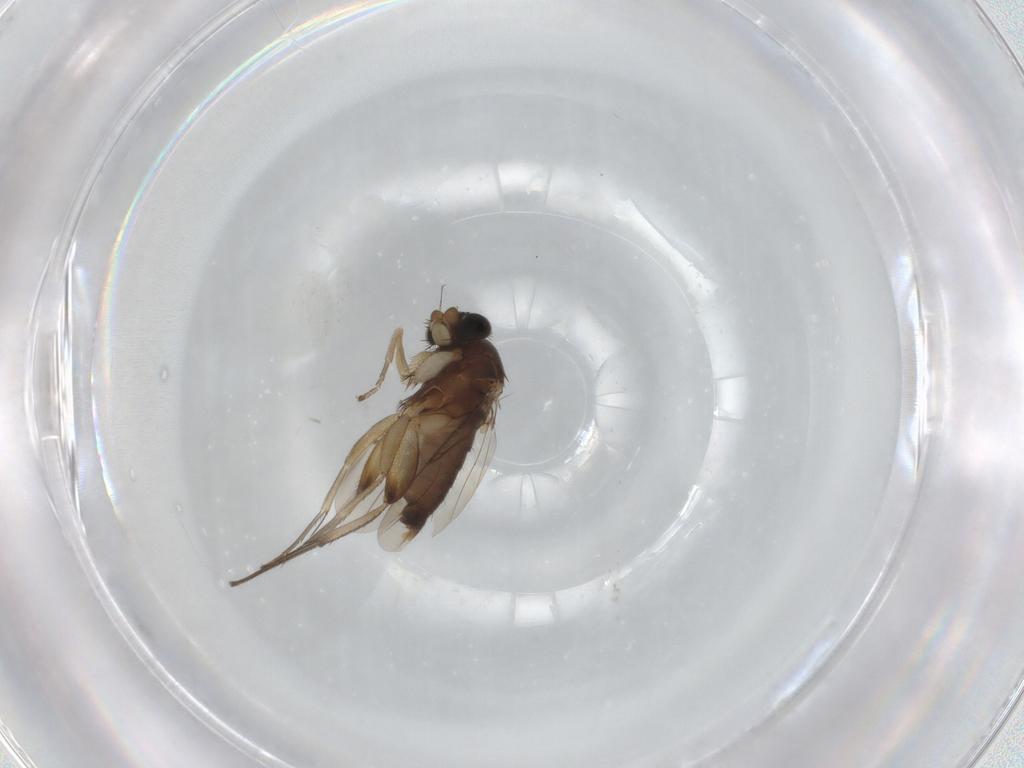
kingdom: Animalia
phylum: Arthropoda
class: Insecta
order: Diptera
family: Phoridae
